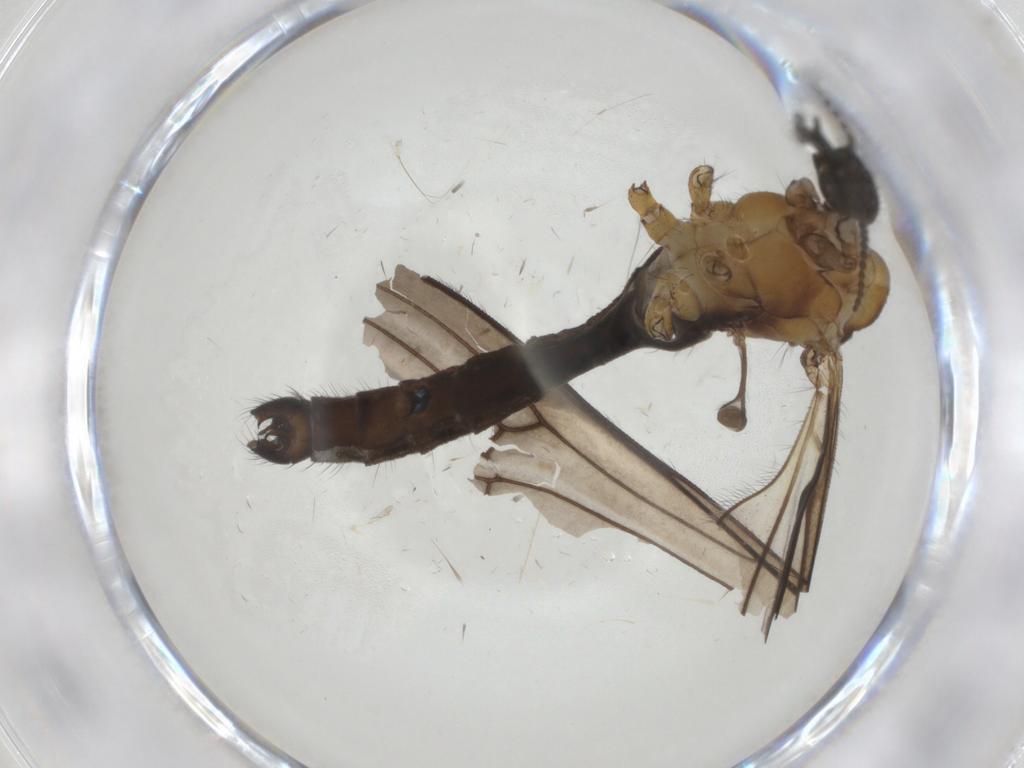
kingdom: Animalia
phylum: Arthropoda
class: Insecta
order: Diptera
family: Limoniidae
